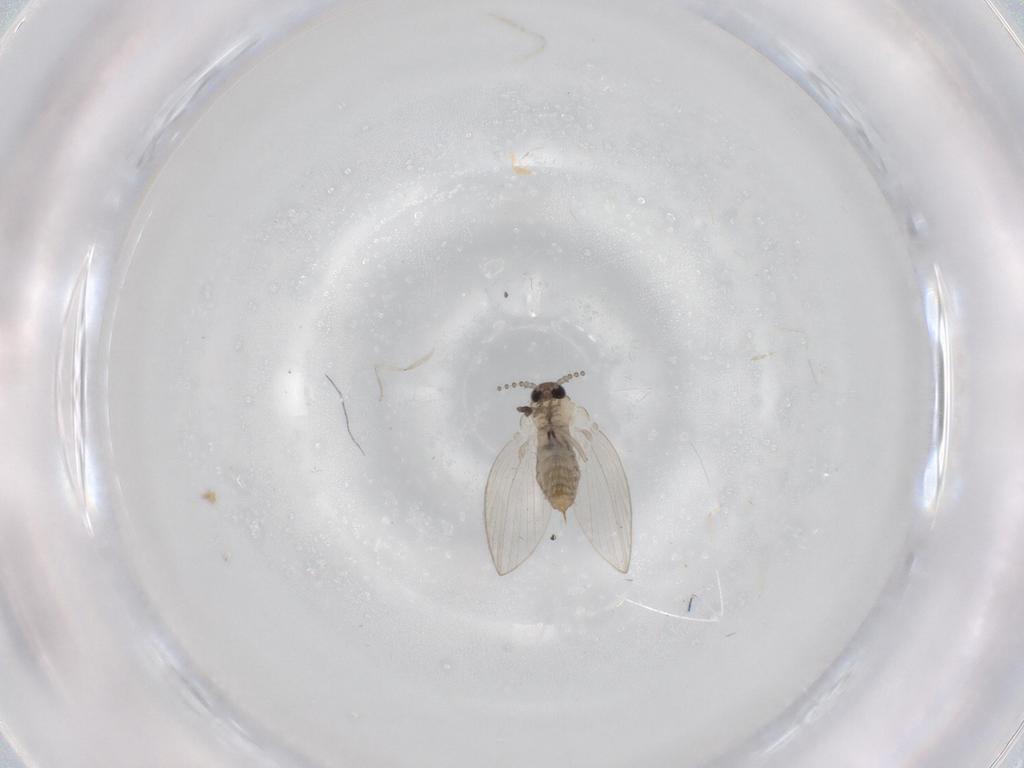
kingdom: Animalia
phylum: Arthropoda
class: Insecta
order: Diptera
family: Psychodidae
